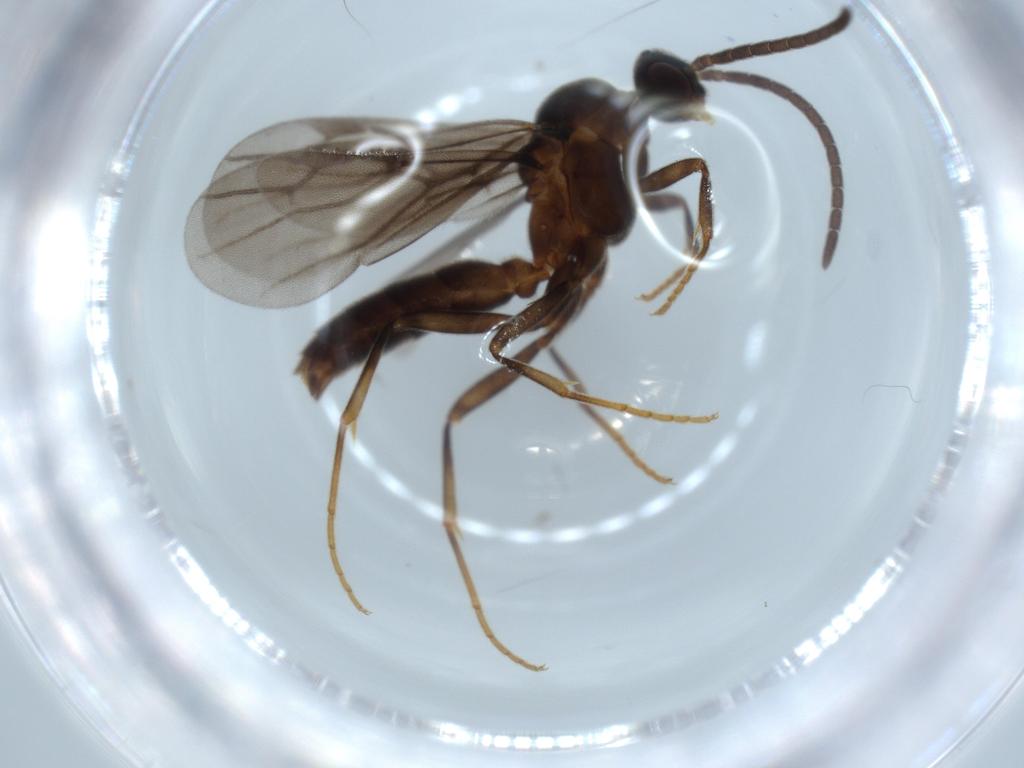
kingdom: Animalia
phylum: Arthropoda
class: Insecta
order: Hymenoptera
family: Formicidae
